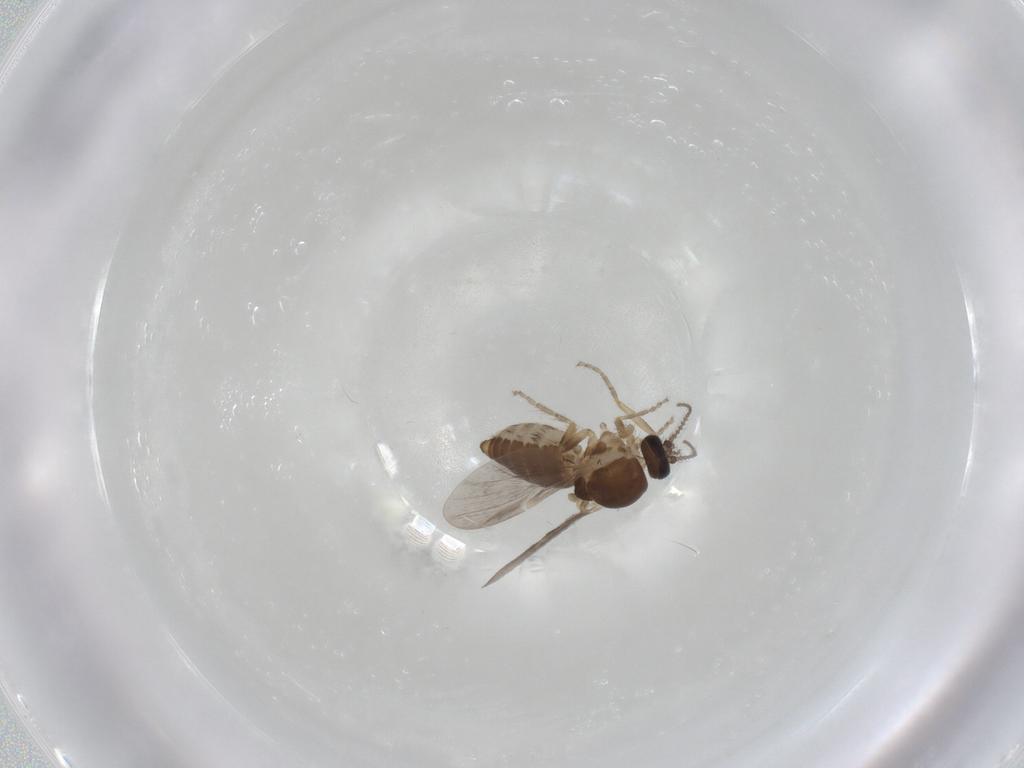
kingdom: Animalia
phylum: Arthropoda
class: Insecta
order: Diptera
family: Ceratopogonidae
